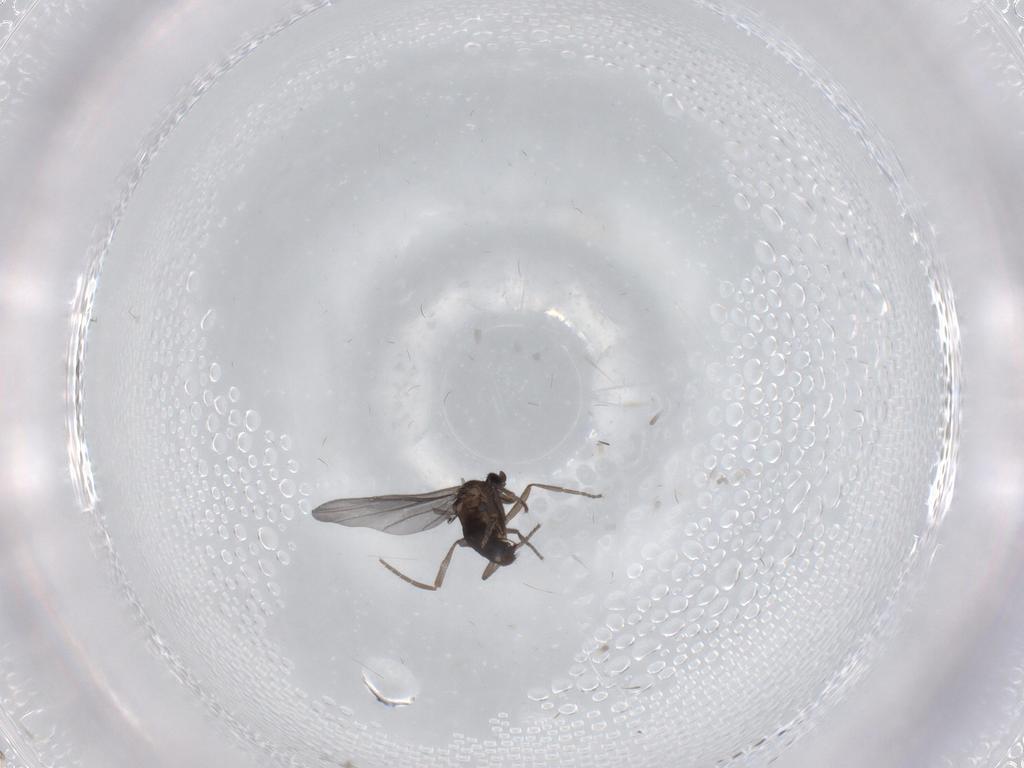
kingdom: Animalia
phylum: Arthropoda
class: Insecta
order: Diptera
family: Phoridae
